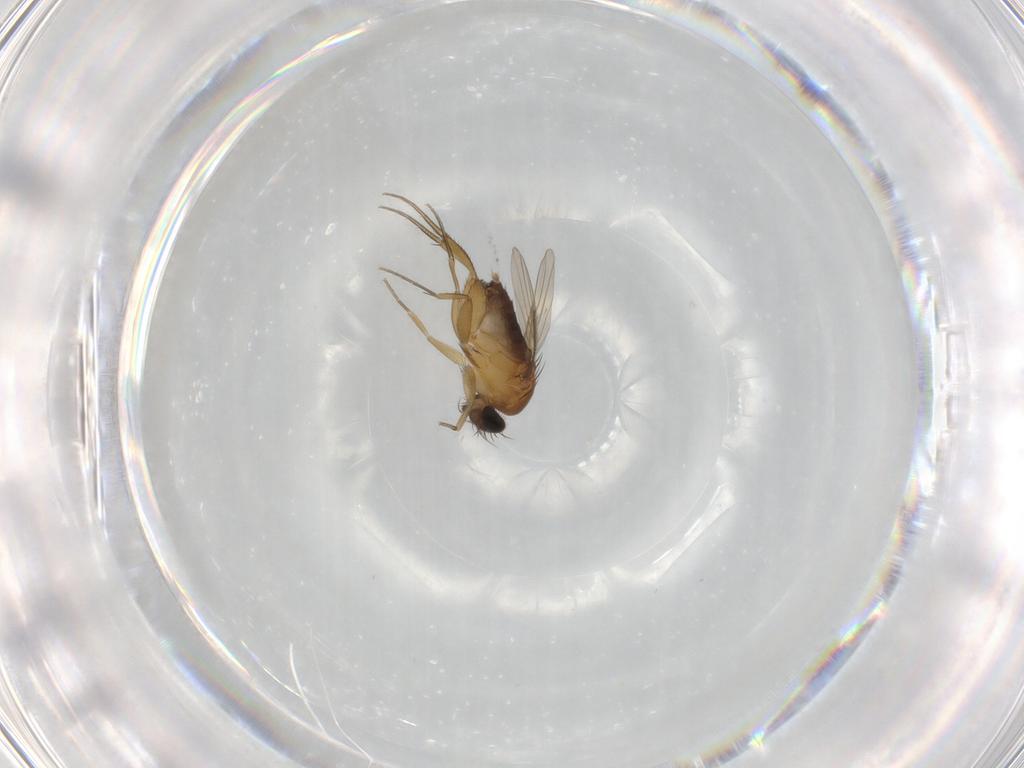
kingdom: Animalia
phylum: Arthropoda
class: Insecta
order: Diptera
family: Phoridae
